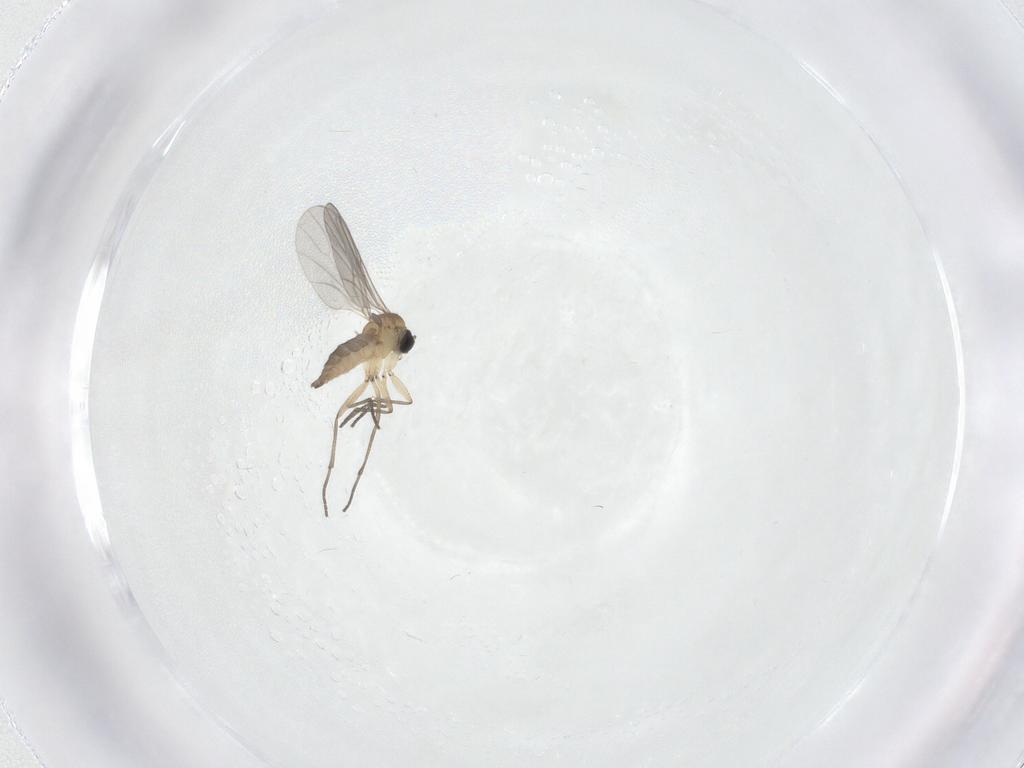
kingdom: Animalia
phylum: Arthropoda
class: Insecta
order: Diptera
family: Sciaridae
